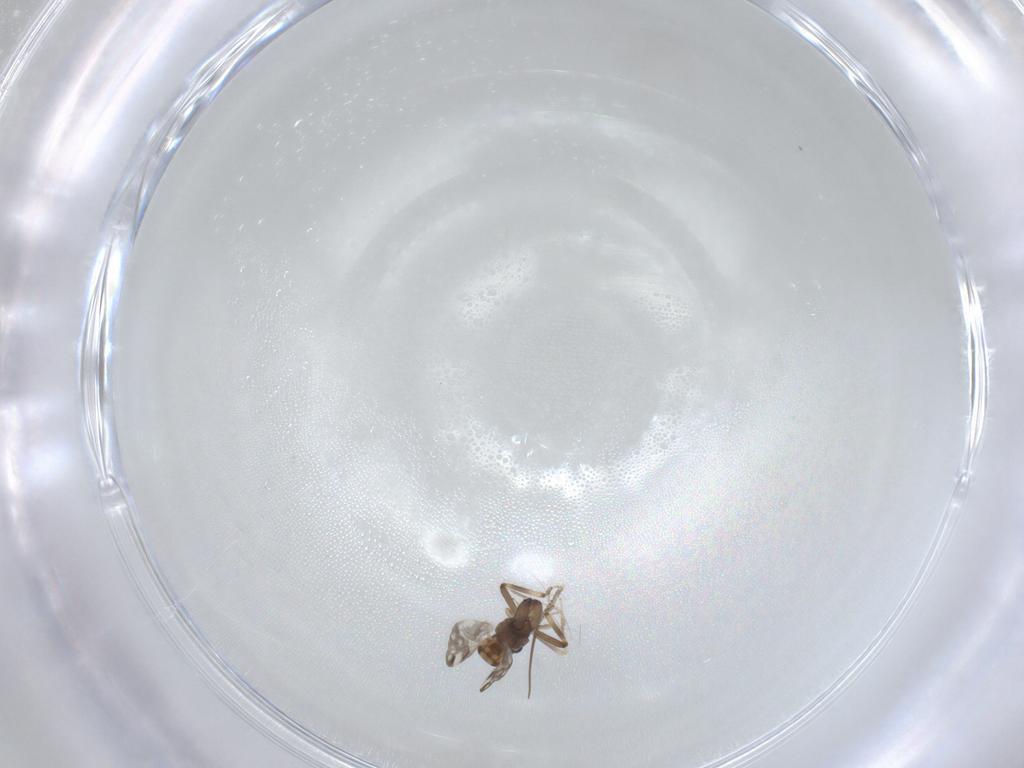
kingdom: Animalia
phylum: Arthropoda
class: Insecta
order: Diptera
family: Ceratopogonidae
